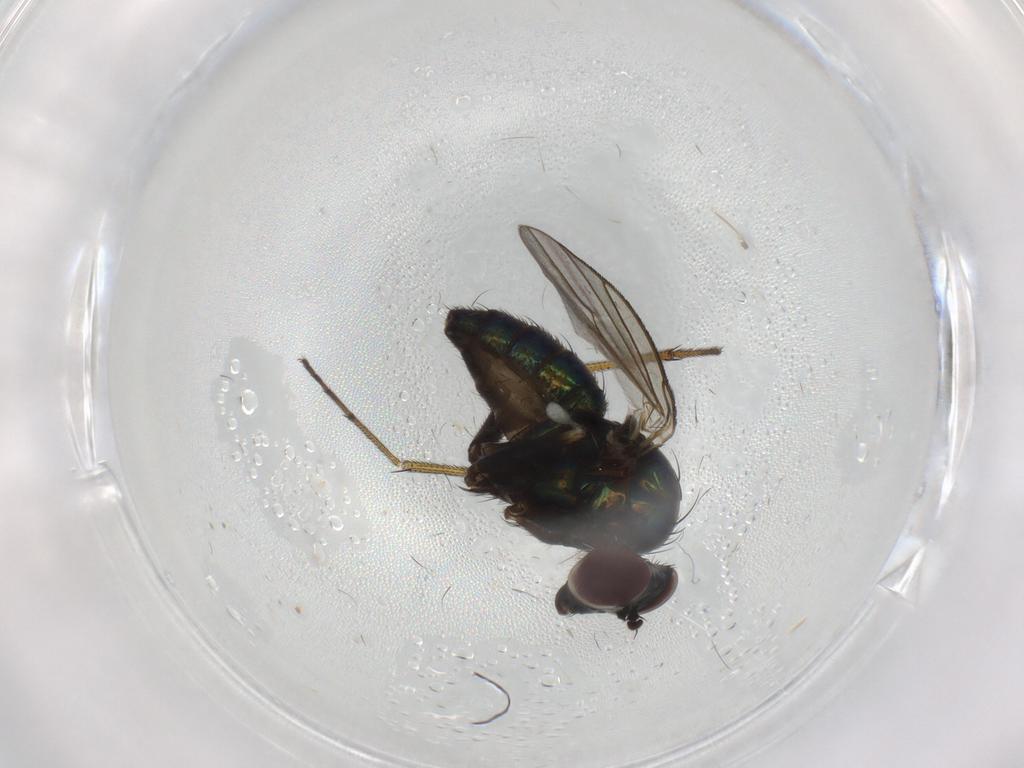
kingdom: Animalia
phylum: Arthropoda
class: Insecta
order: Diptera
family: Dolichopodidae
